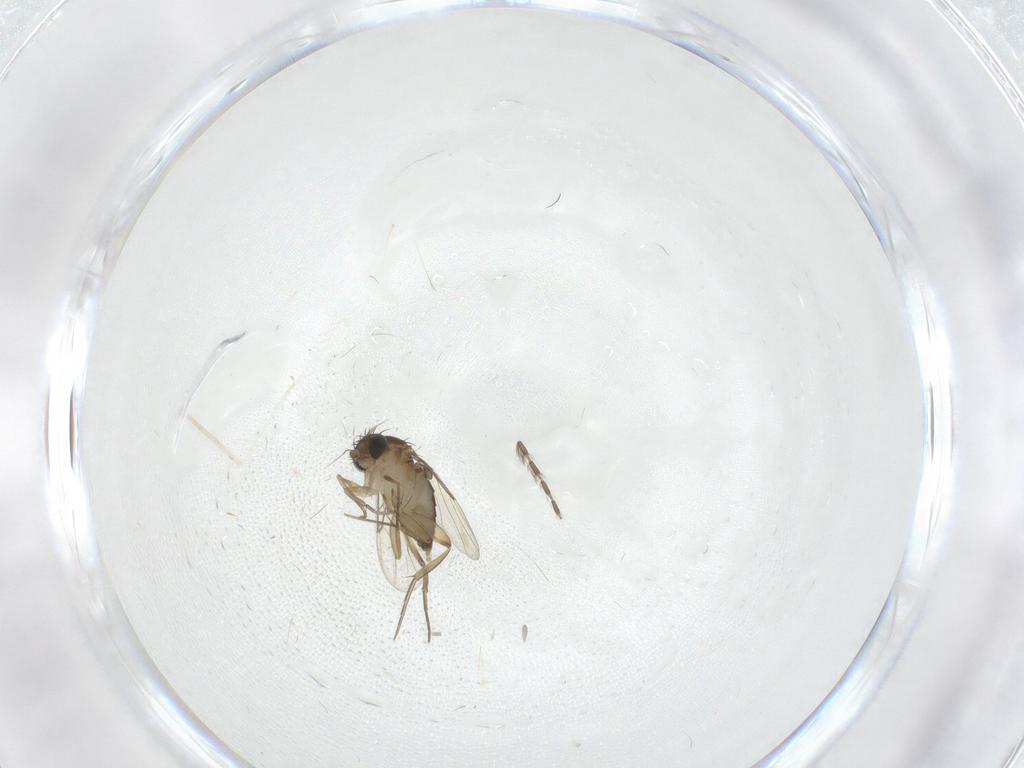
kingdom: Animalia
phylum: Arthropoda
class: Insecta
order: Diptera
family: Phoridae
